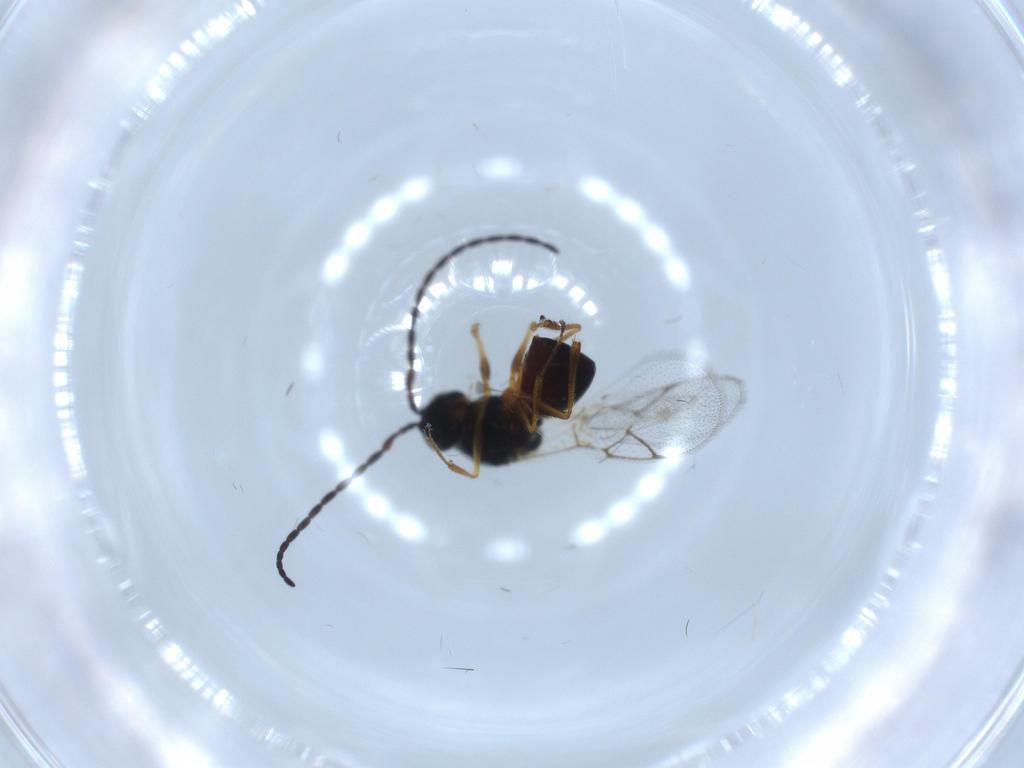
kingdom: Animalia
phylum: Arthropoda
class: Insecta
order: Hymenoptera
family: Figitidae
